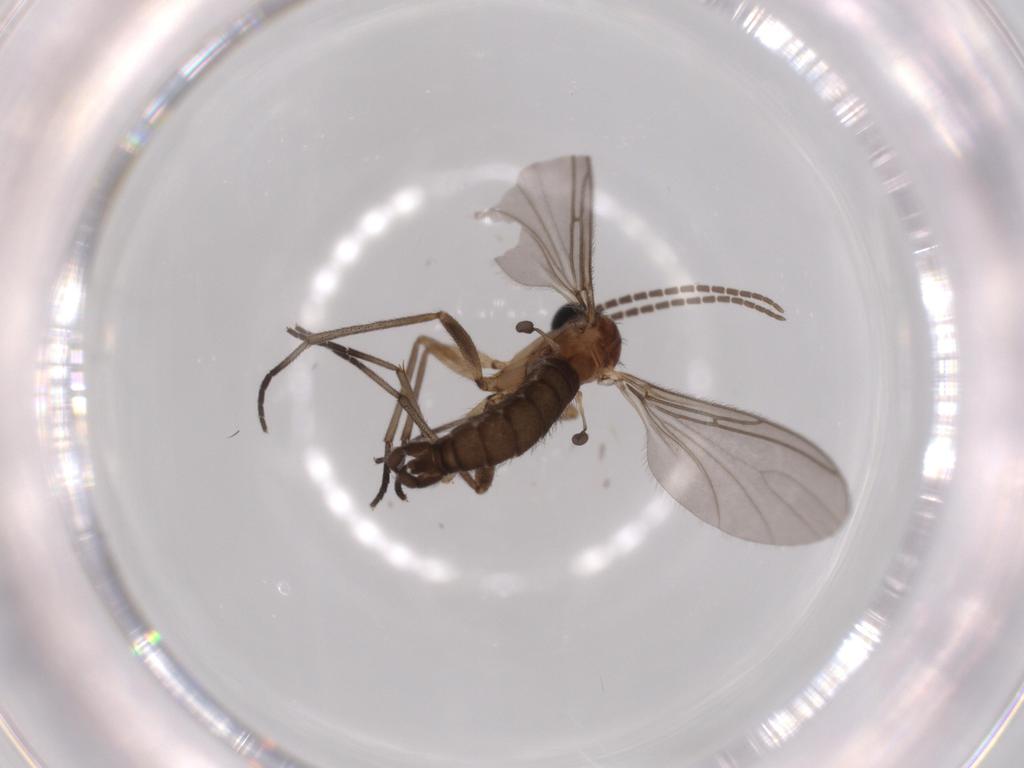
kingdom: Animalia
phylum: Arthropoda
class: Insecta
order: Diptera
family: Sciaridae
